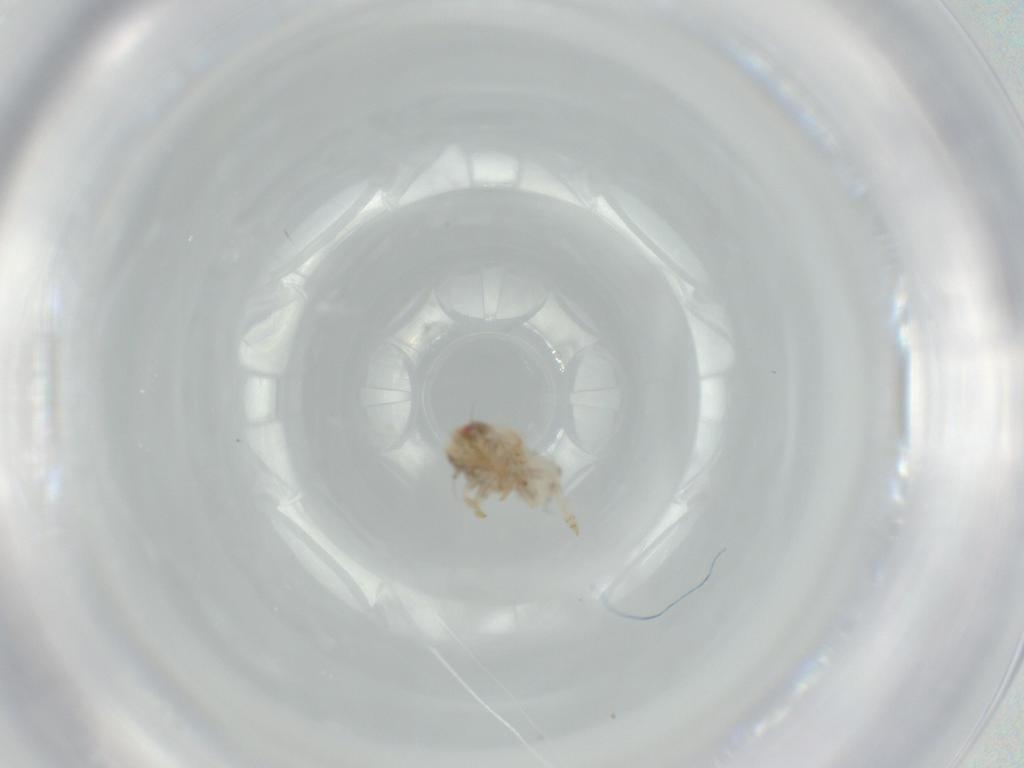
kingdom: Animalia
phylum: Arthropoda
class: Insecta
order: Hemiptera
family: Acanaloniidae
